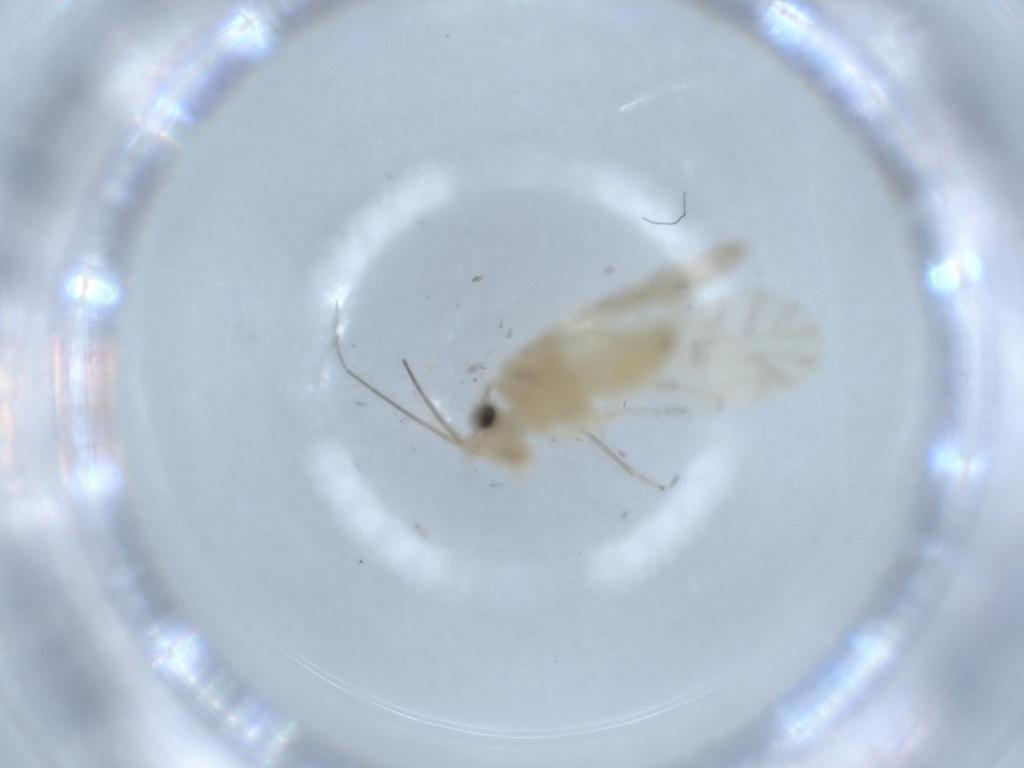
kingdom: Animalia
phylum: Arthropoda
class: Insecta
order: Psocodea
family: Caeciliusidae
